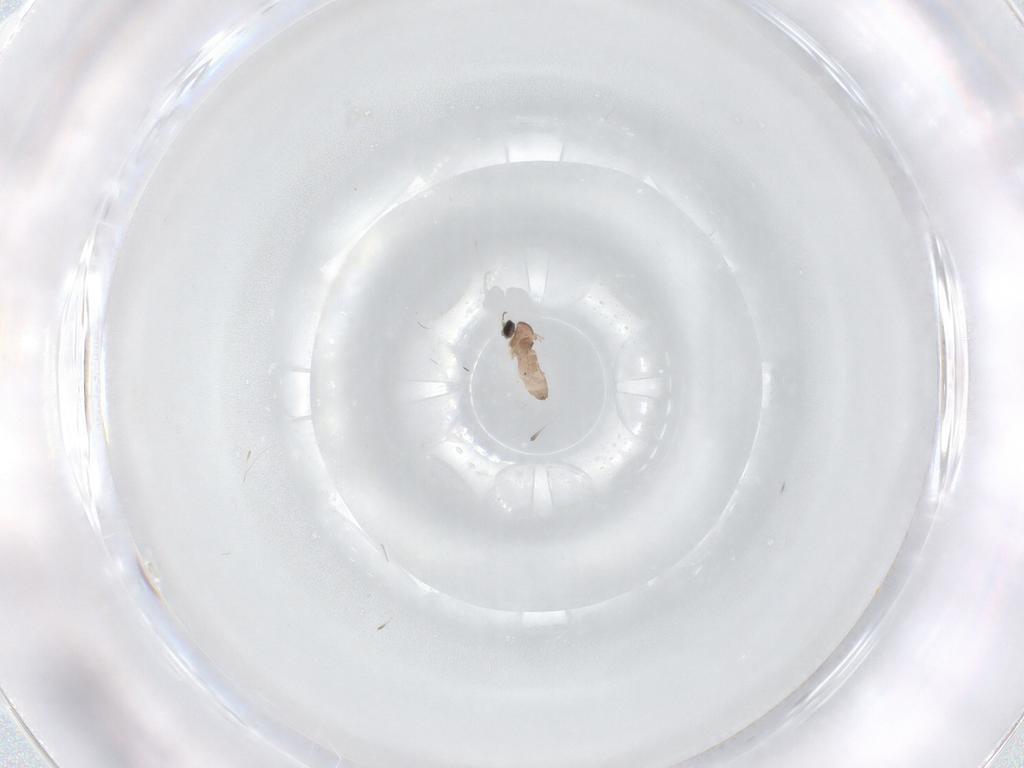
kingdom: Animalia
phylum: Arthropoda
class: Insecta
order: Diptera
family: Cecidomyiidae
